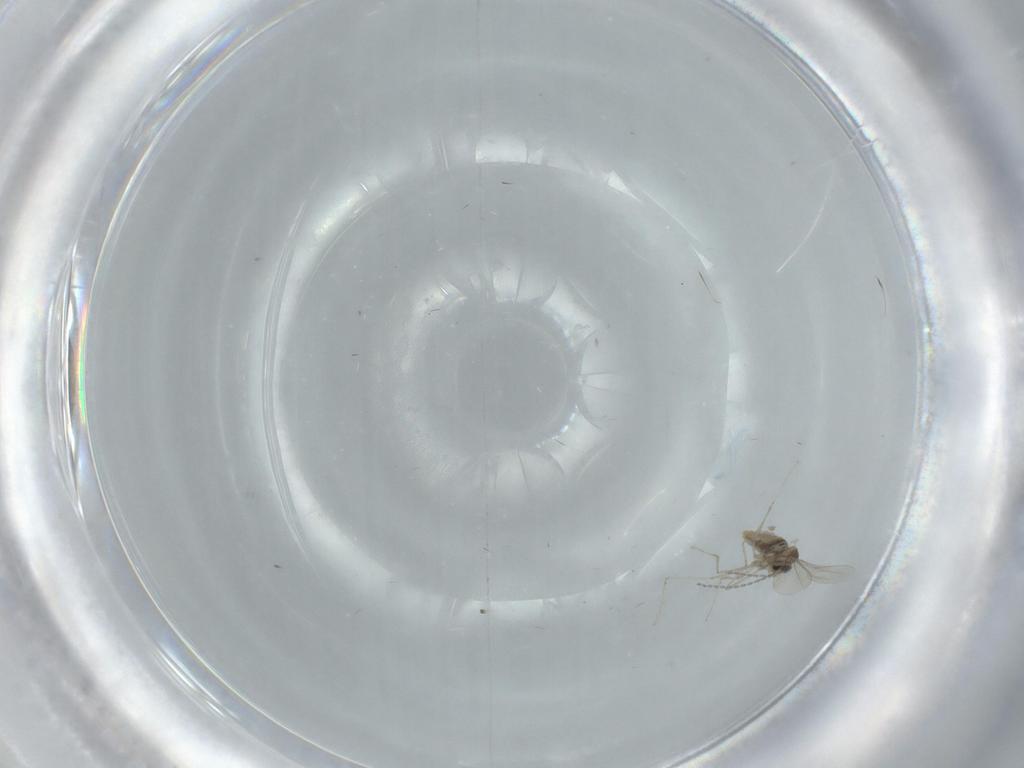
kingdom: Animalia
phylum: Arthropoda
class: Insecta
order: Diptera
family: Cecidomyiidae
